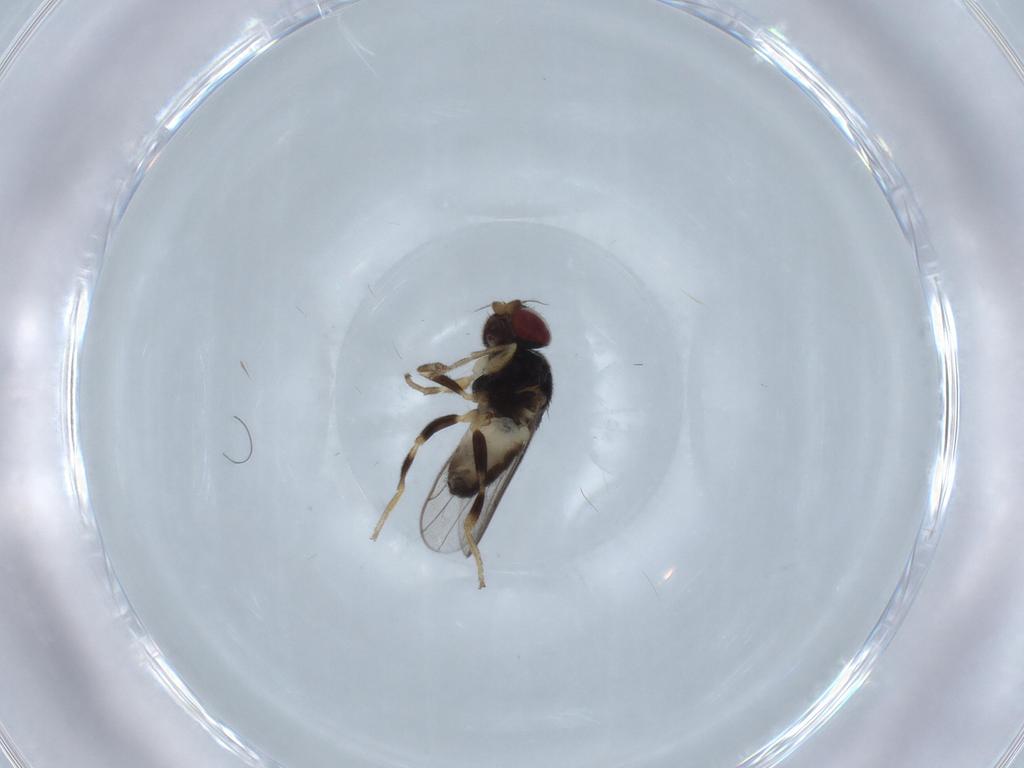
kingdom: Animalia
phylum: Arthropoda
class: Insecta
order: Diptera
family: Chloropidae
